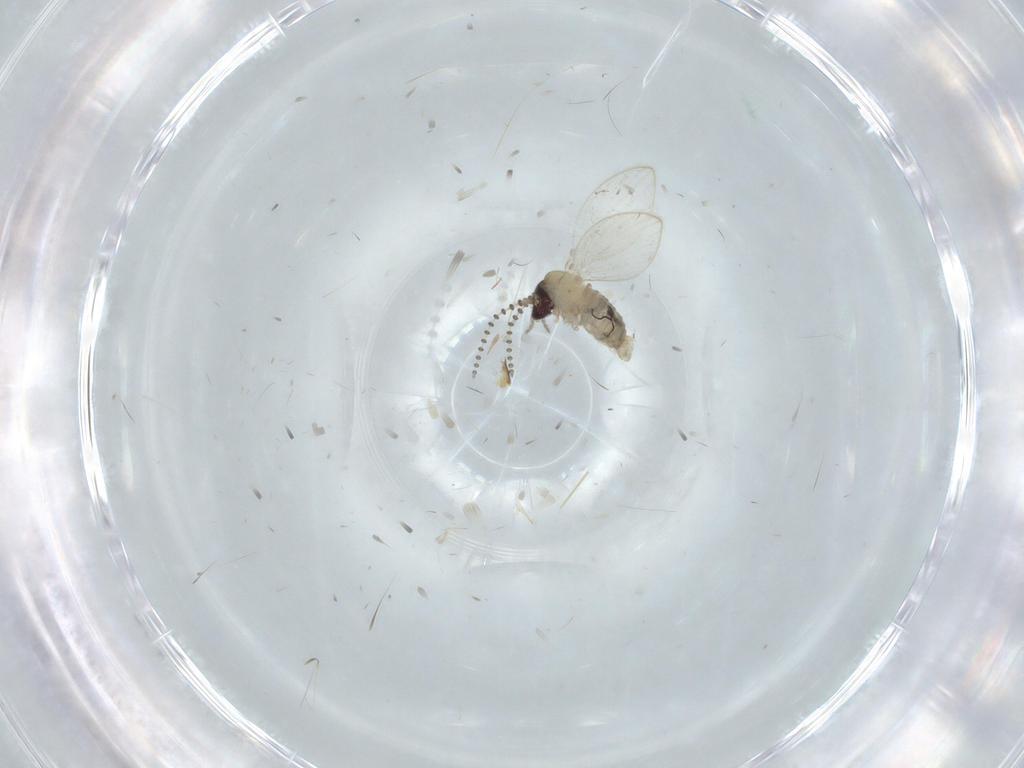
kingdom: Animalia
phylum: Arthropoda
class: Insecta
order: Diptera
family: Psychodidae
